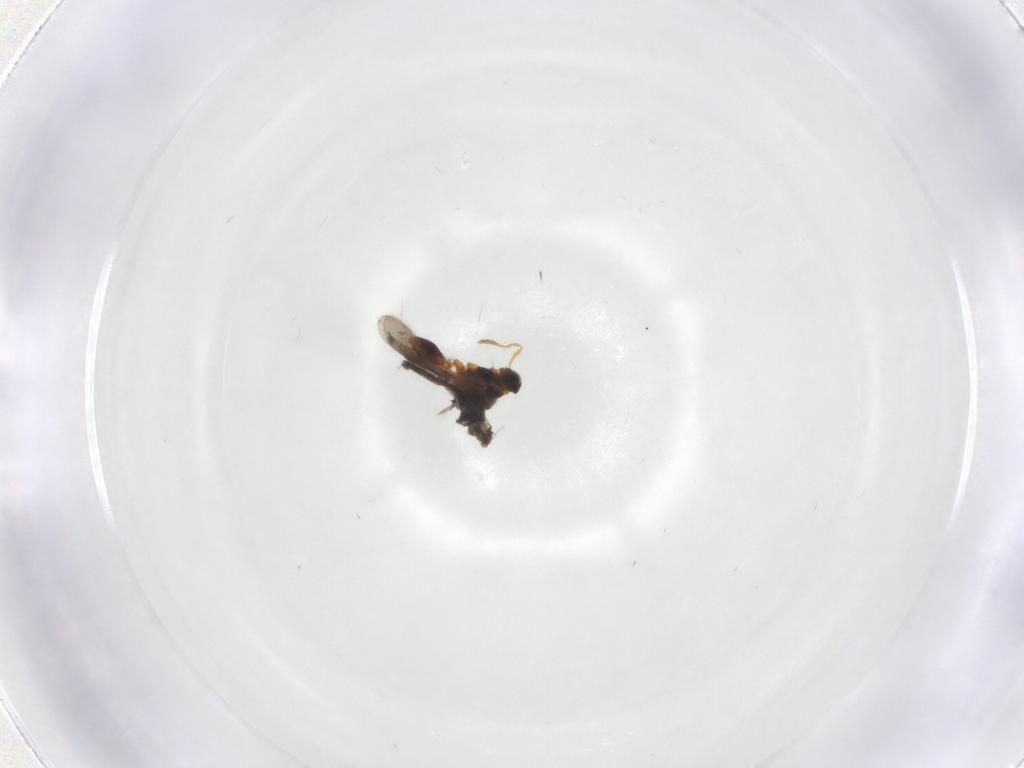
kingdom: Animalia
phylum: Arthropoda
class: Insecta
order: Hymenoptera
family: Platygastridae
